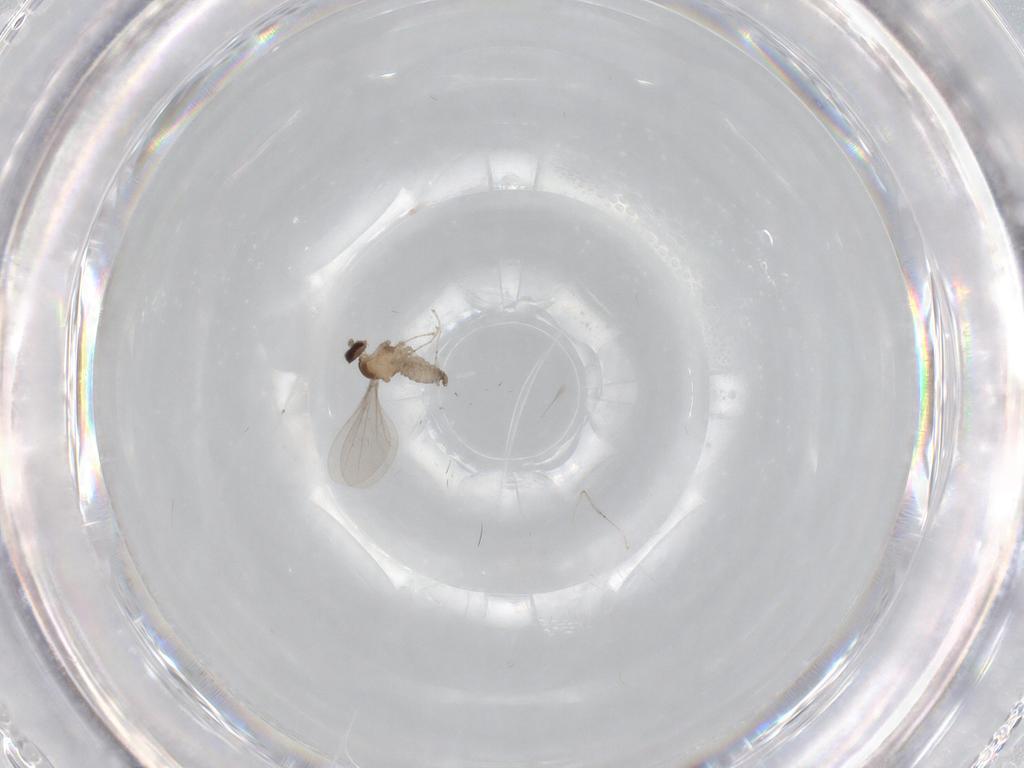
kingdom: Animalia
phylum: Arthropoda
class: Insecta
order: Diptera
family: Cecidomyiidae
